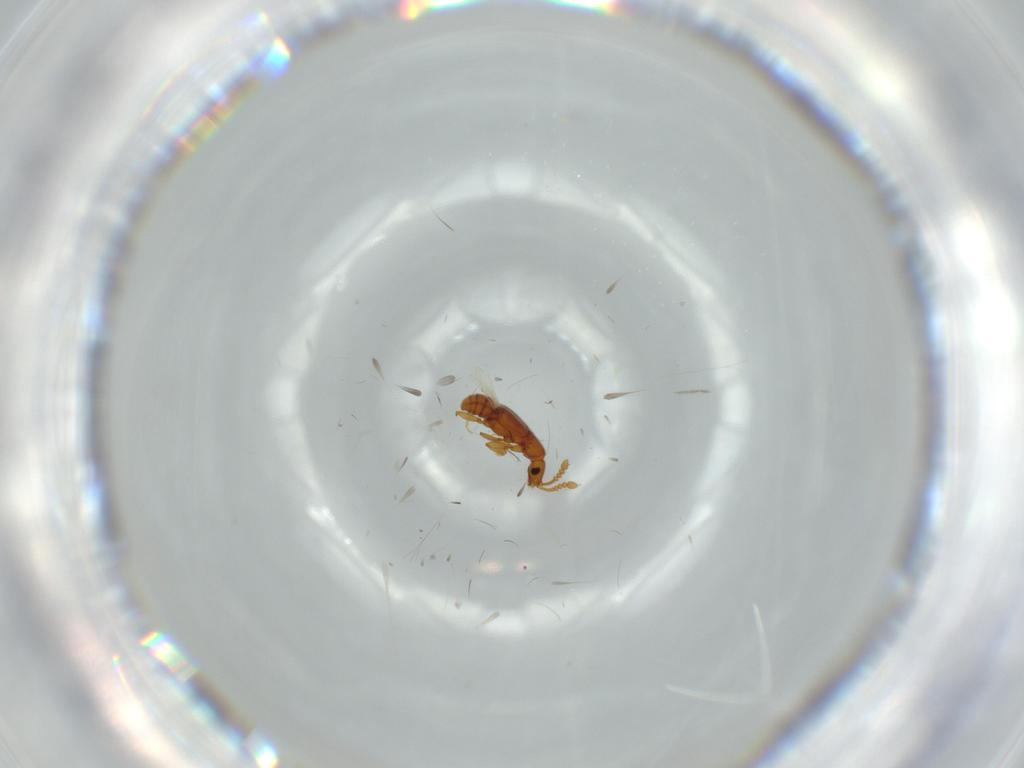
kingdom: Animalia
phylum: Arthropoda
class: Insecta
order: Coleoptera
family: Staphylinidae
